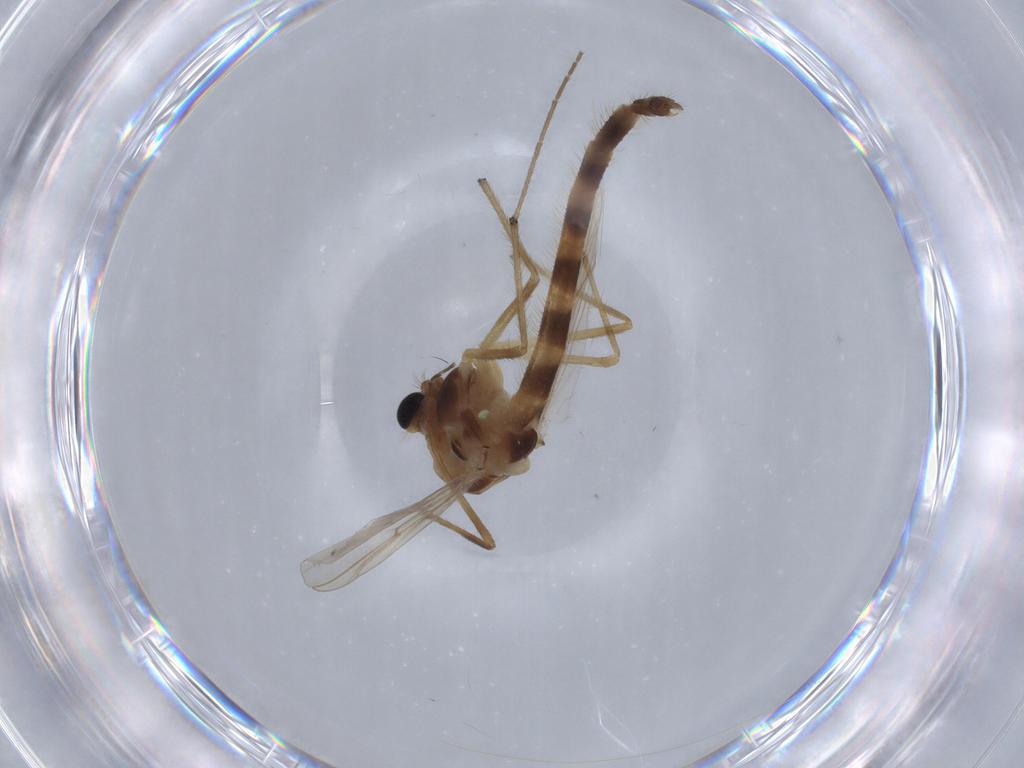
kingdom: Animalia
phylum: Arthropoda
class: Insecta
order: Diptera
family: Chironomidae
